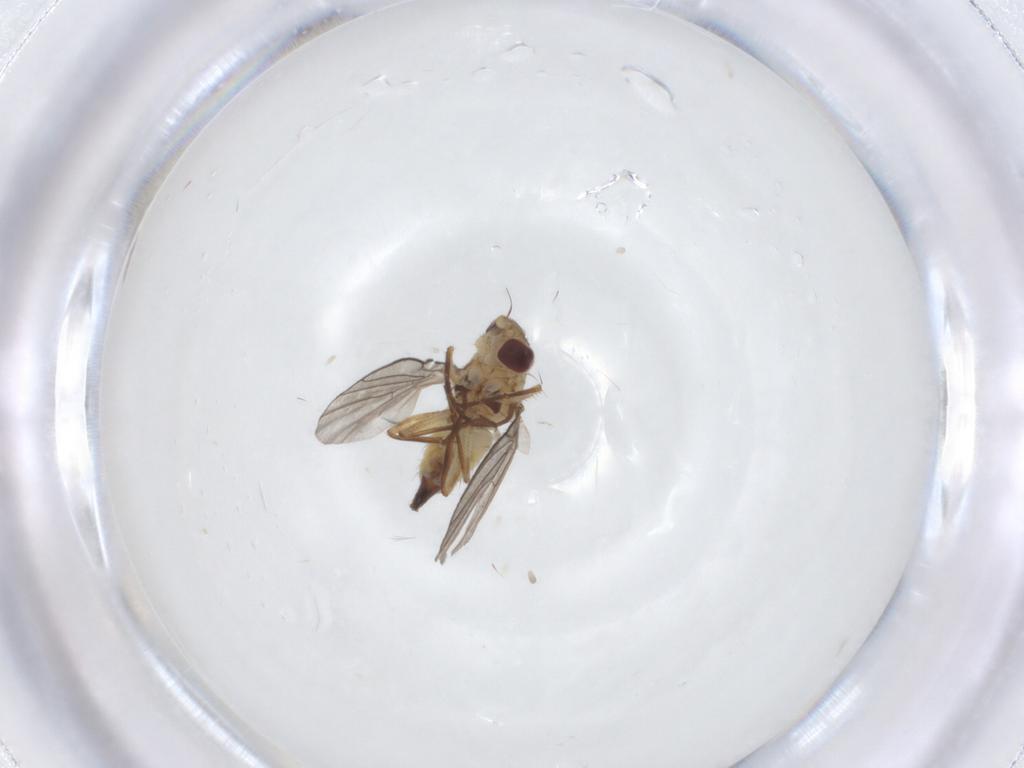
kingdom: Animalia
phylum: Arthropoda
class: Insecta
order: Diptera
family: Agromyzidae
